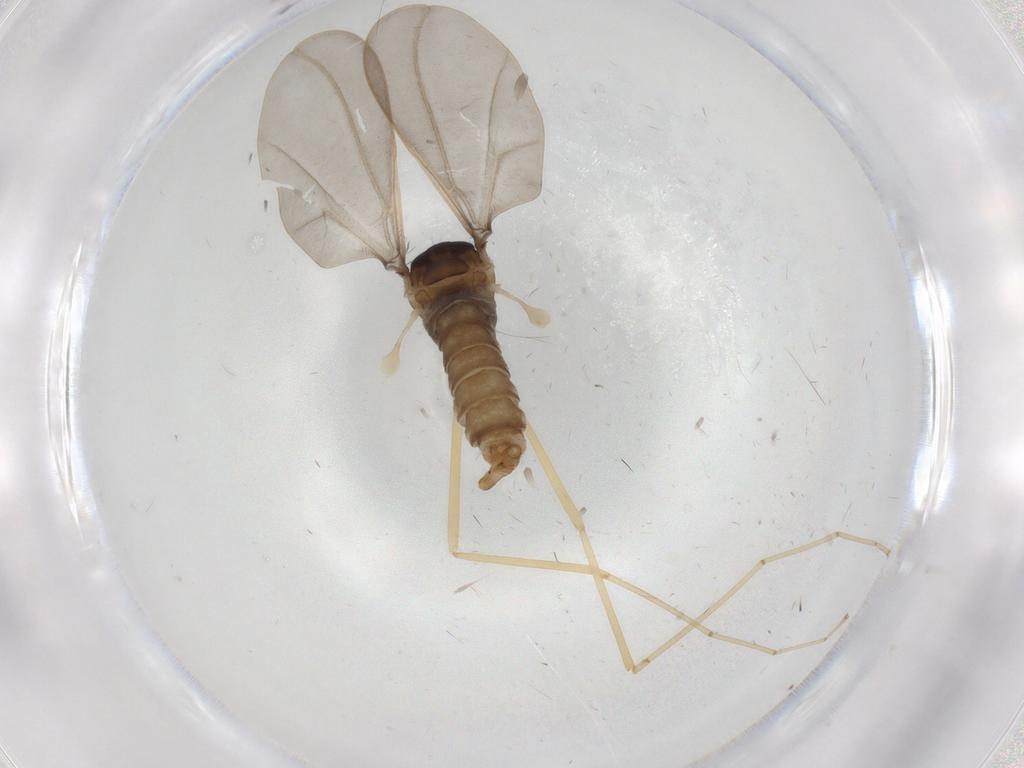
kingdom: Animalia
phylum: Arthropoda
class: Insecta
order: Diptera
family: Cecidomyiidae
